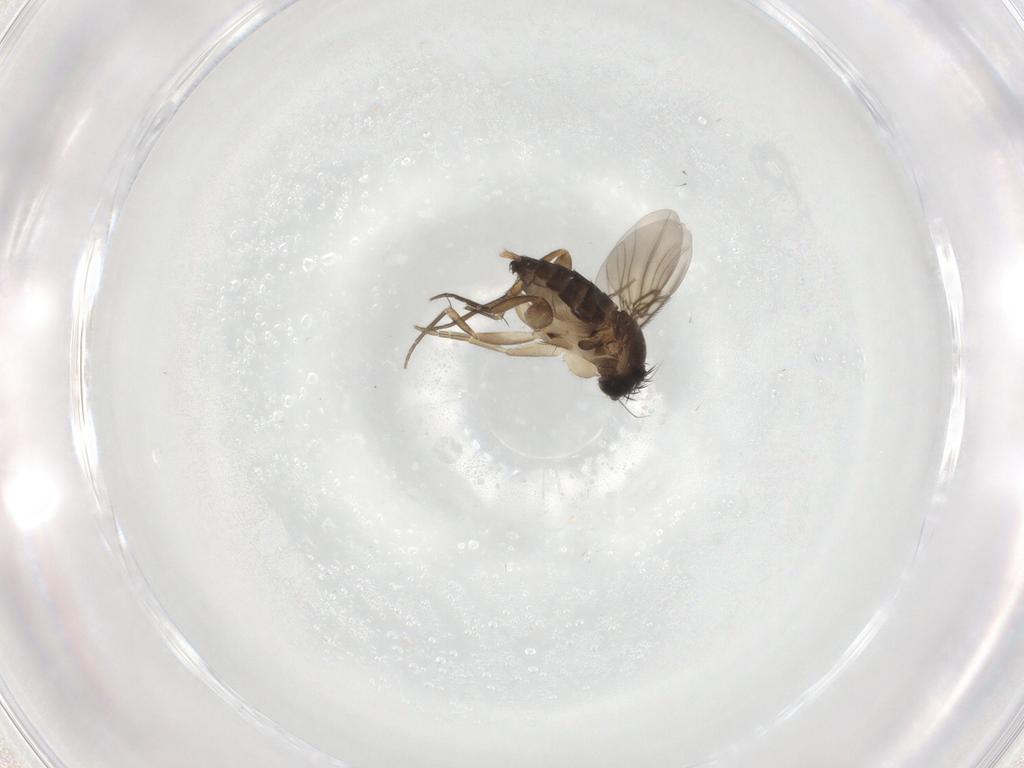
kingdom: Animalia
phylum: Arthropoda
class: Insecta
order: Diptera
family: Phoridae
